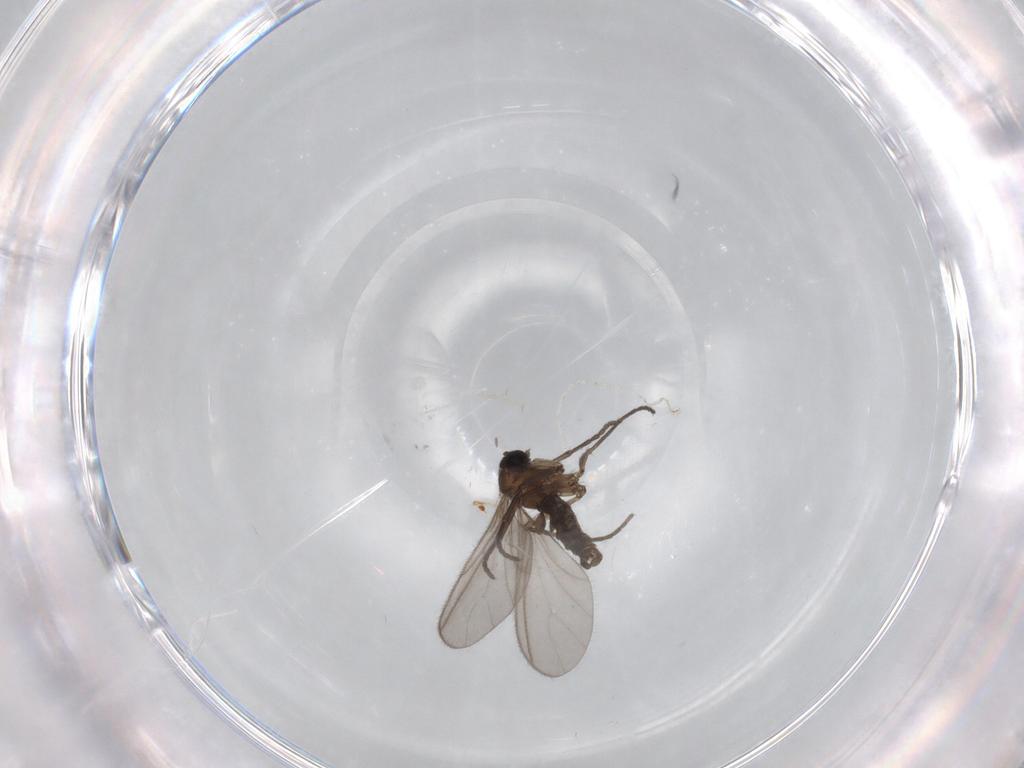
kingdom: Animalia
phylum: Arthropoda
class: Insecta
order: Diptera
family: Sciaridae
